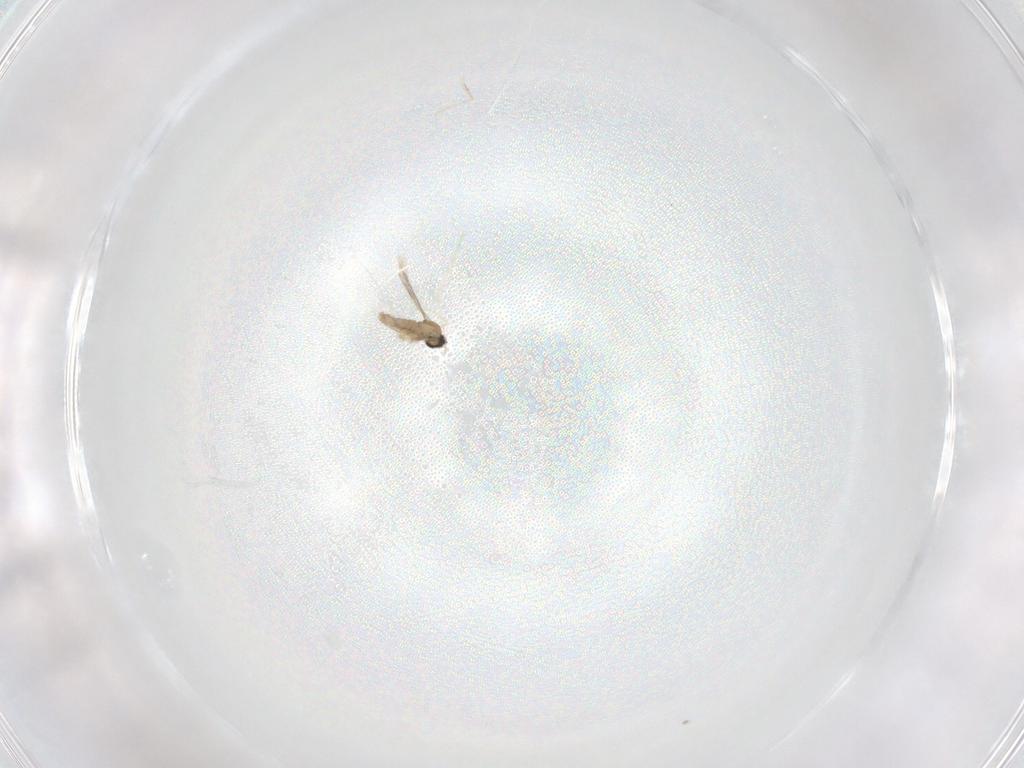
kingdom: Animalia
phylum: Arthropoda
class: Insecta
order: Diptera
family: Cecidomyiidae
